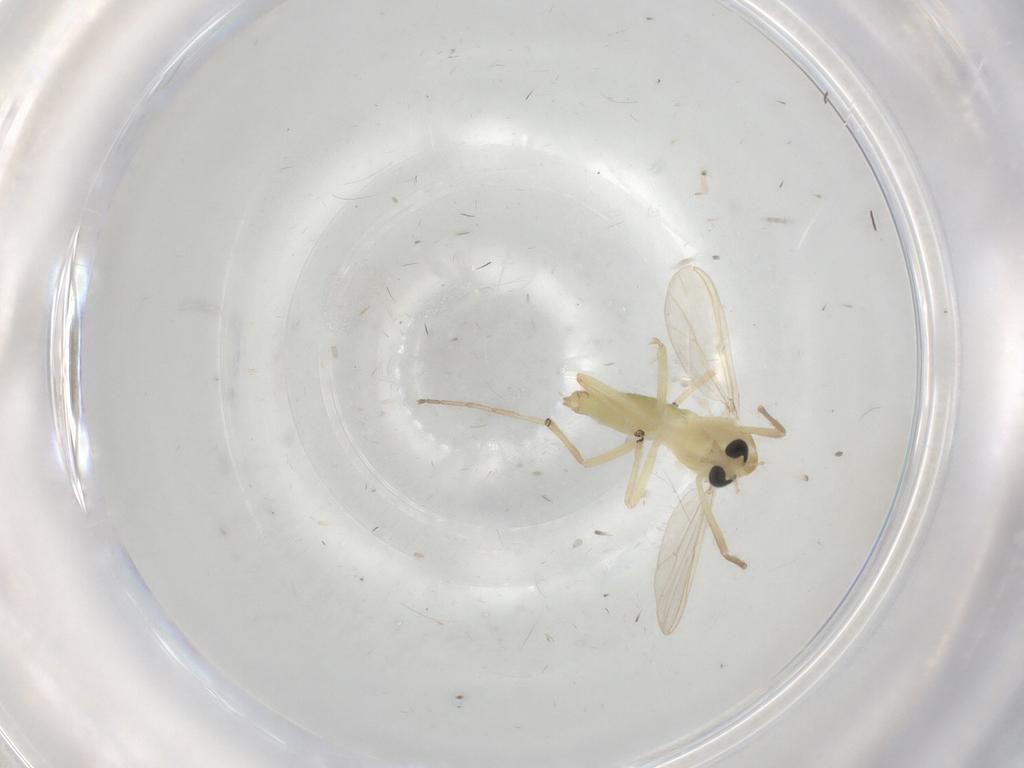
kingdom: Animalia
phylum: Arthropoda
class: Insecta
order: Diptera
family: Chironomidae
